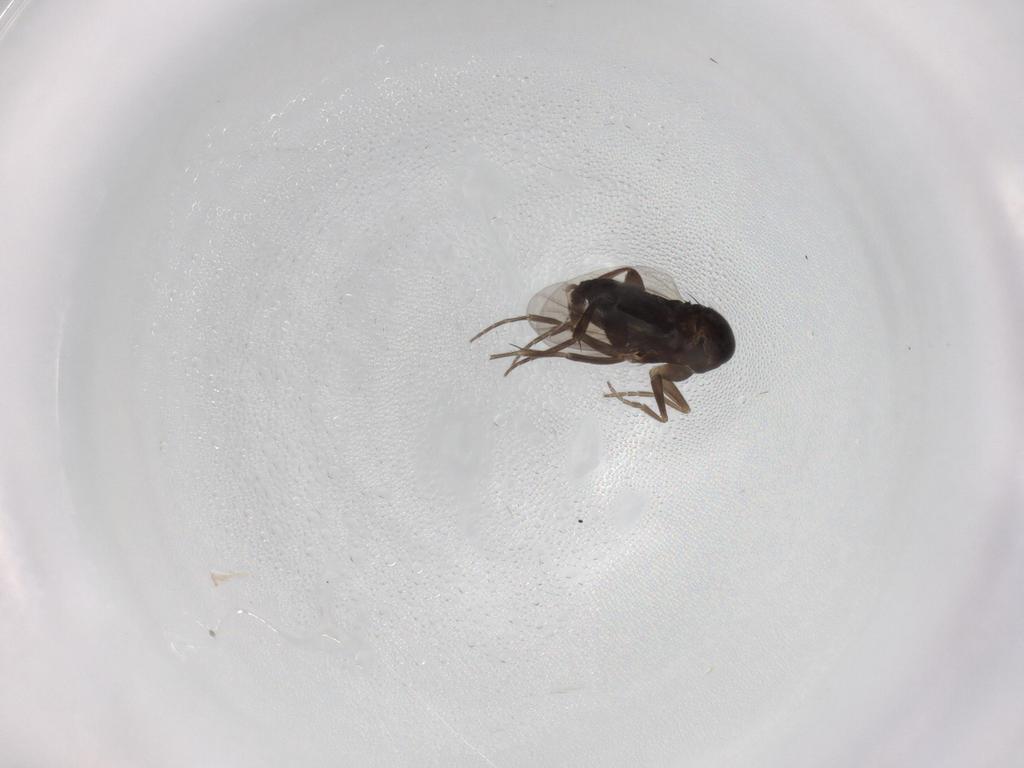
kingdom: Animalia
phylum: Arthropoda
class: Insecta
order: Diptera
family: Phoridae
